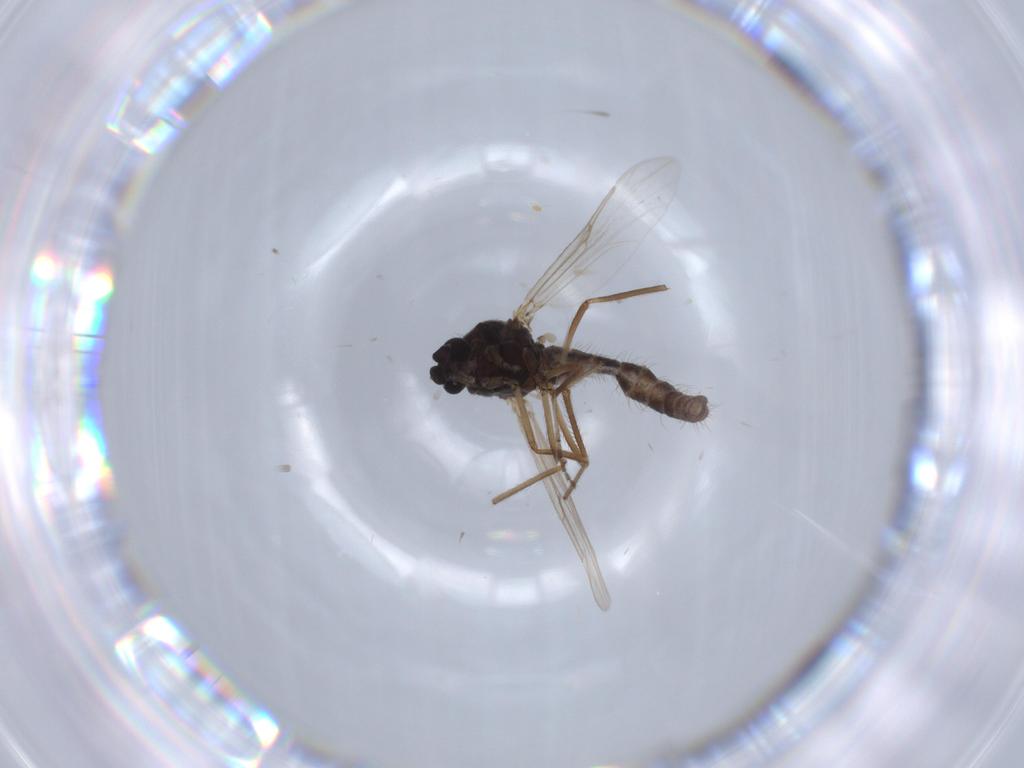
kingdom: Animalia
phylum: Arthropoda
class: Insecta
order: Diptera
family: Ceratopogonidae
